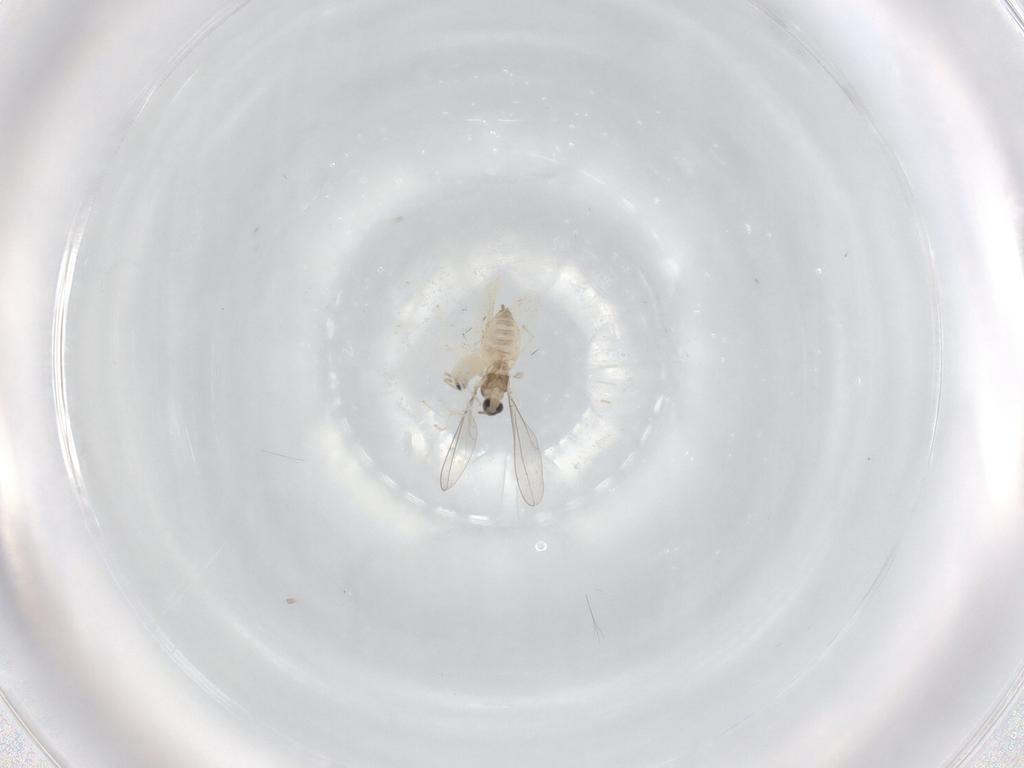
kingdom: Animalia
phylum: Arthropoda
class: Insecta
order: Diptera
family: Cecidomyiidae
